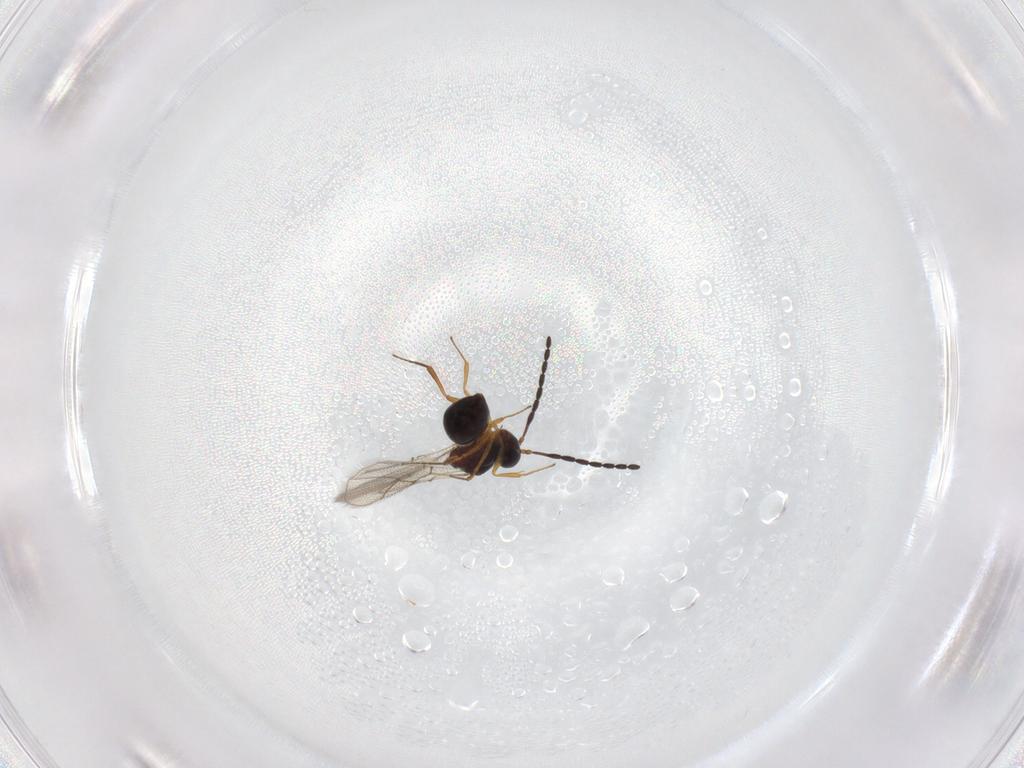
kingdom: Animalia
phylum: Arthropoda
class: Insecta
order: Hymenoptera
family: Figitidae
